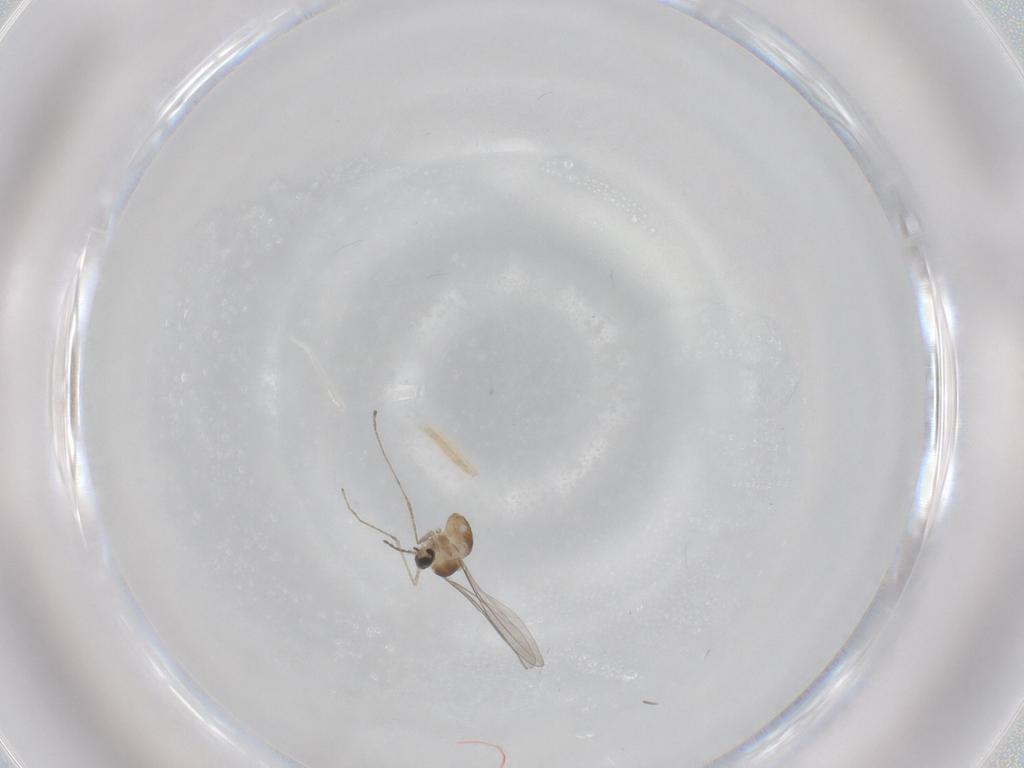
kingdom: Animalia
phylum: Arthropoda
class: Insecta
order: Diptera
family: Cecidomyiidae
